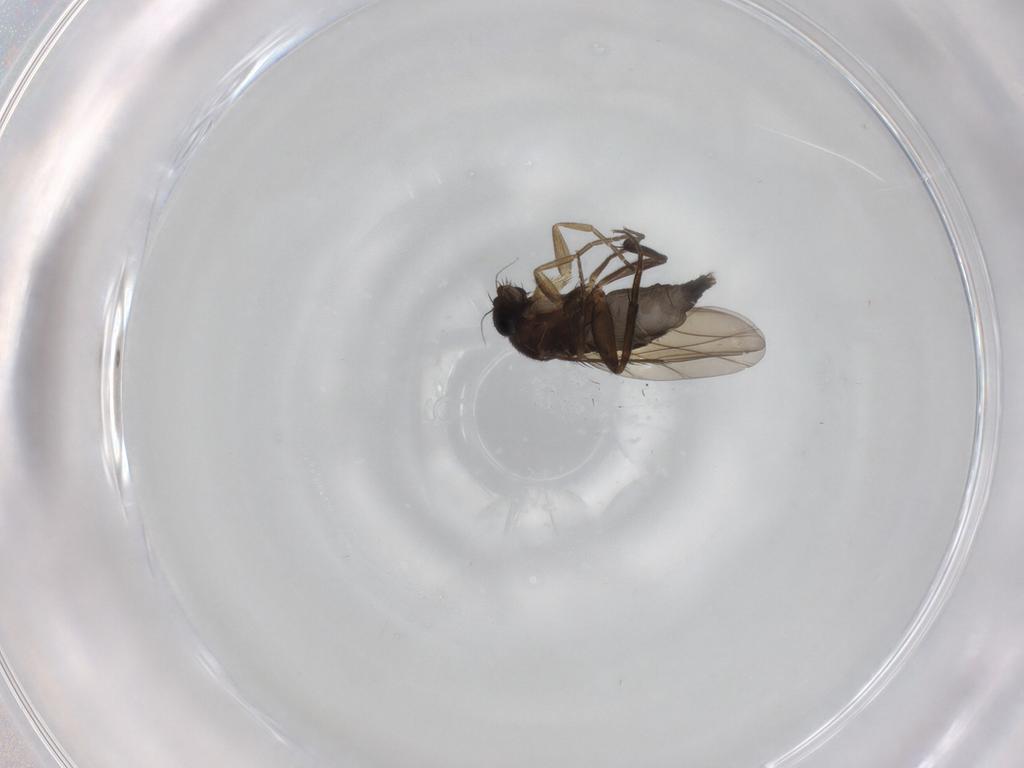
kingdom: Animalia
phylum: Arthropoda
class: Insecta
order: Diptera
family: Phoridae
